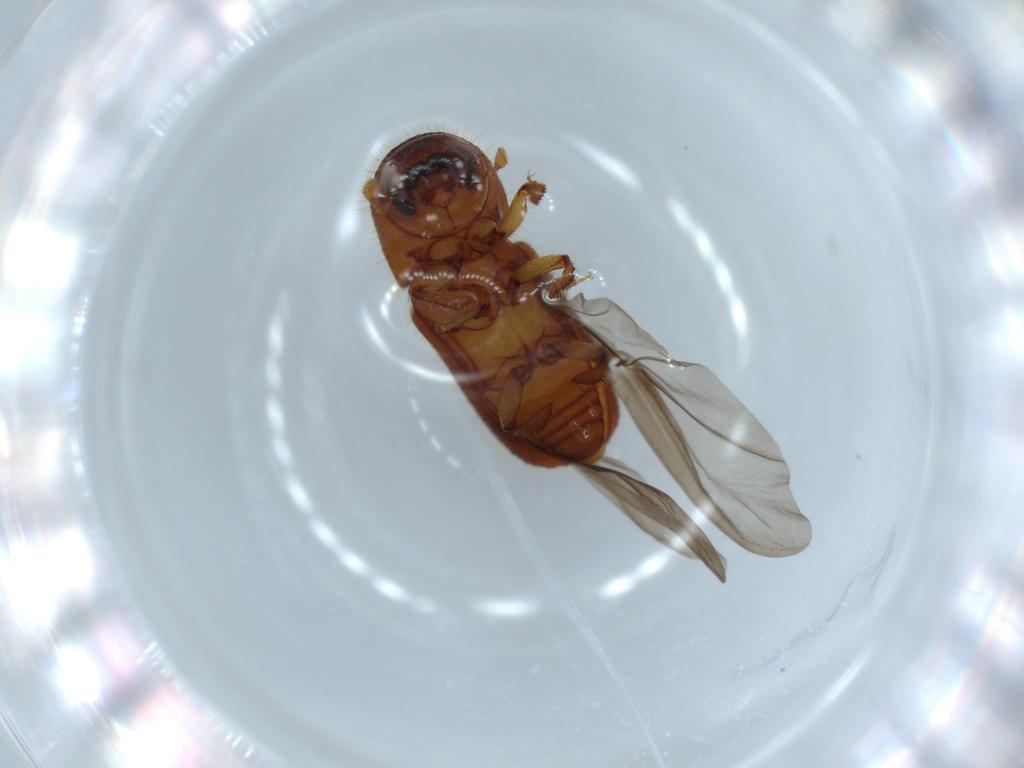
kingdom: Animalia
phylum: Arthropoda
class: Insecta
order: Coleoptera
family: Curculionidae
